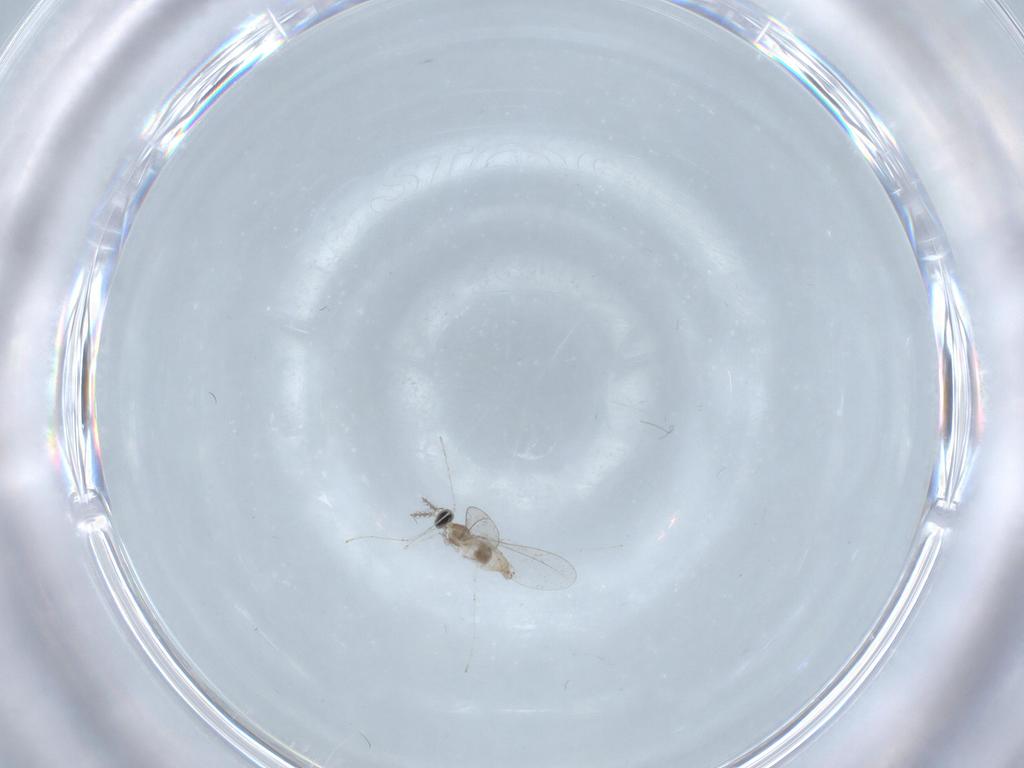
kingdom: Animalia
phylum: Arthropoda
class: Insecta
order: Diptera
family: Cecidomyiidae
